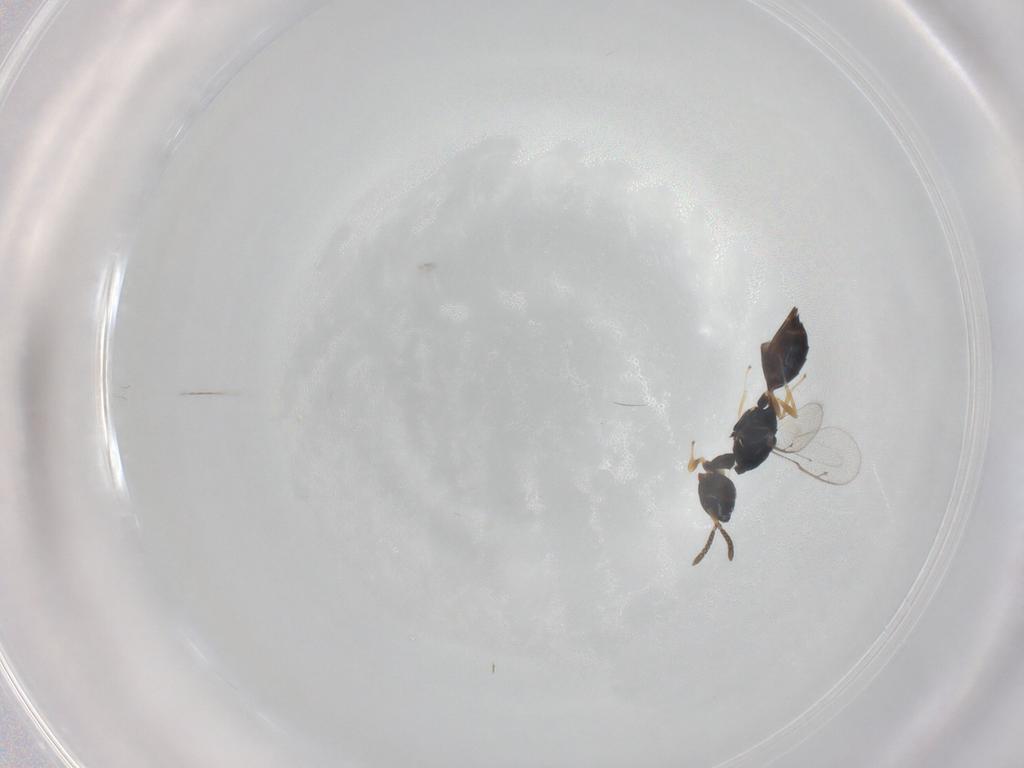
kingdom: Animalia
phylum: Arthropoda
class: Insecta
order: Hymenoptera
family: Pteromalidae
